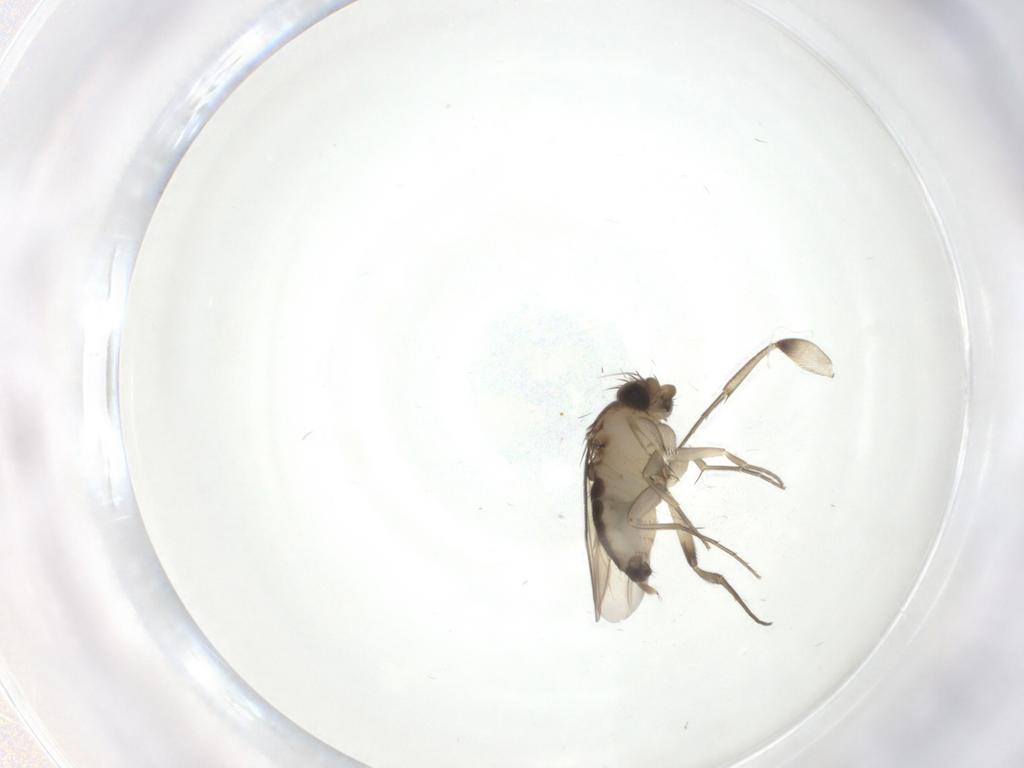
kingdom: Animalia
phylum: Arthropoda
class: Insecta
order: Diptera
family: Phoridae
